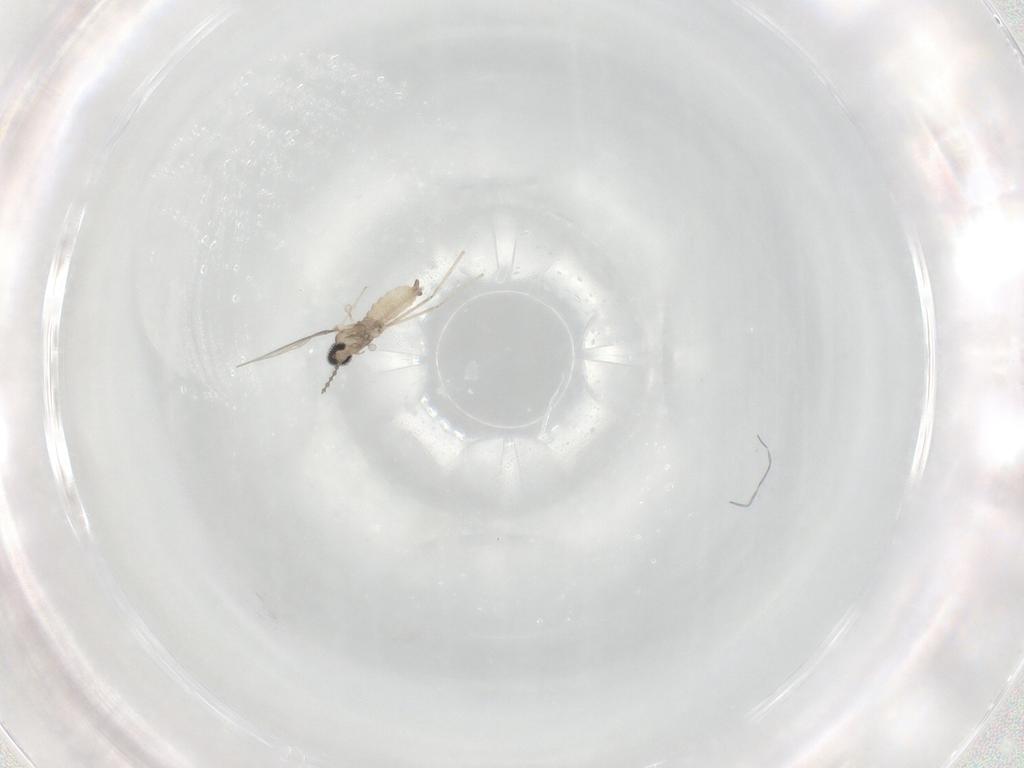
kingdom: Animalia
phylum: Arthropoda
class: Insecta
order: Diptera
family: Cecidomyiidae
